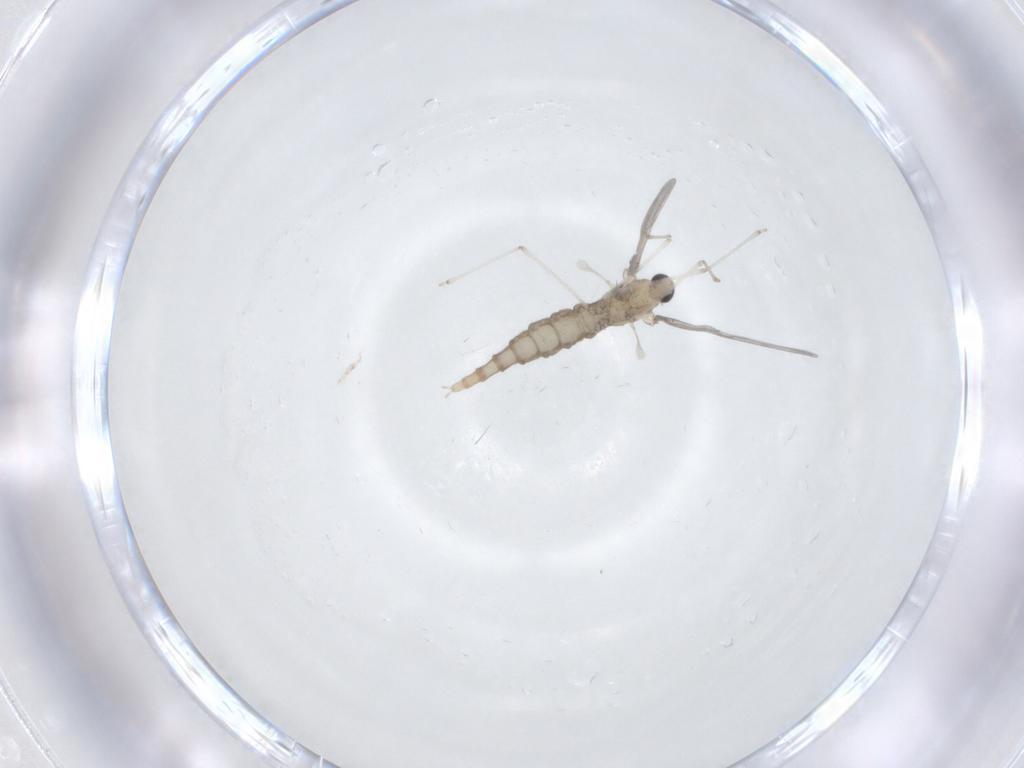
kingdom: Animalia
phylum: Arthropoda
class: Insecta
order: Diptera
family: Cecidomyiidae
